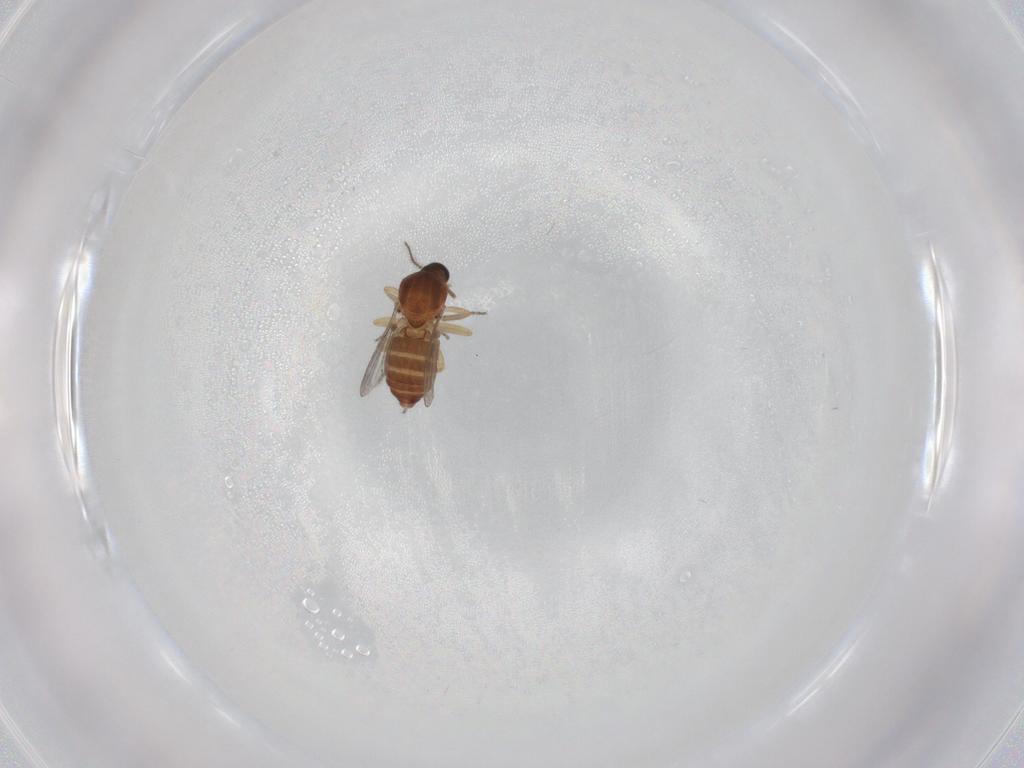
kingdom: Animalia
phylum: Arthropoda
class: Insecta
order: Diptera
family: Ceratopogonidae
